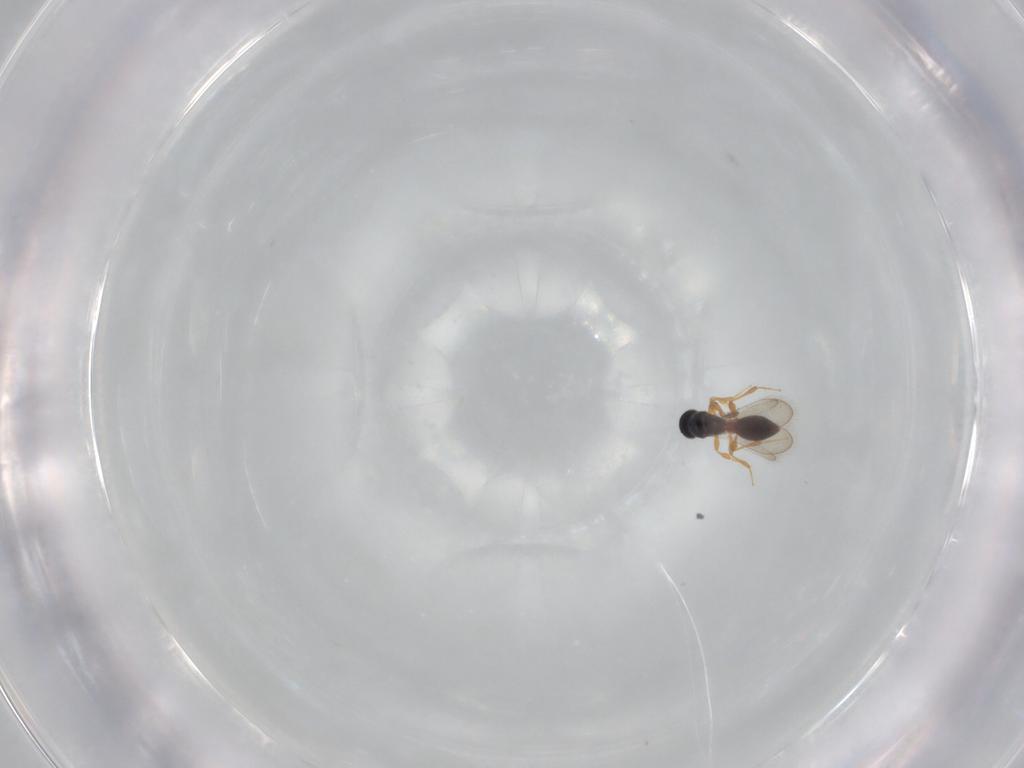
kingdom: Animalia
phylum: Arthropoda
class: Insecta
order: Hymenoptera
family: Platygastridae
